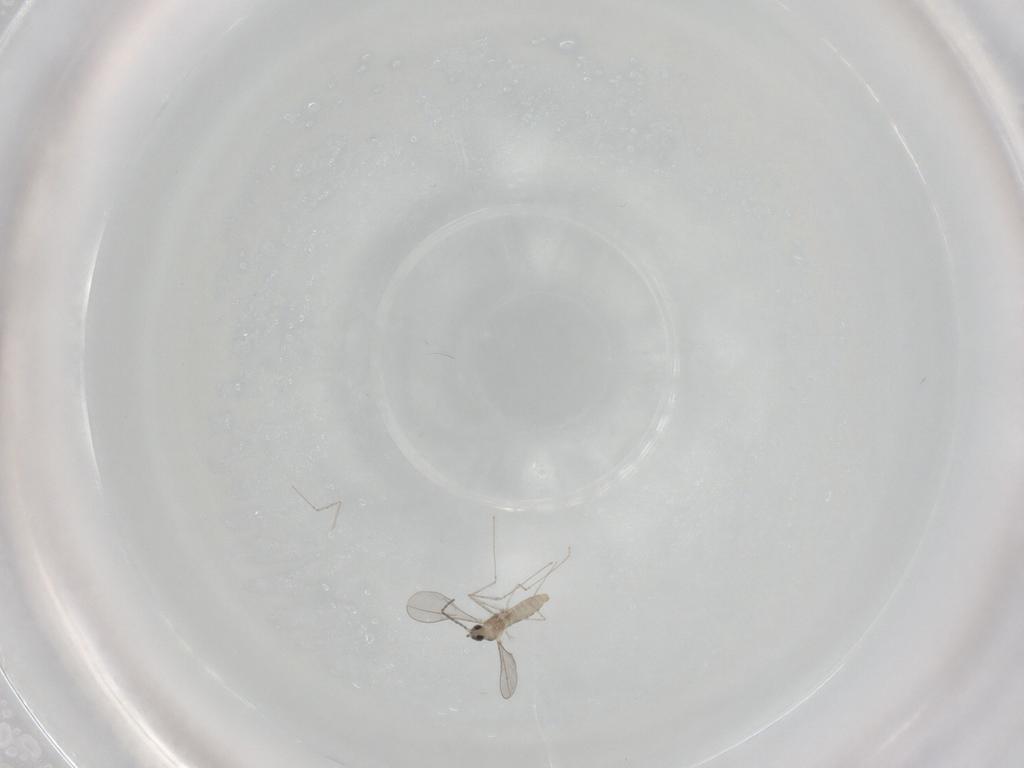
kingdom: Animalia
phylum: Arthropoda
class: Insecta
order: Diptera
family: Cecidomyiidae
